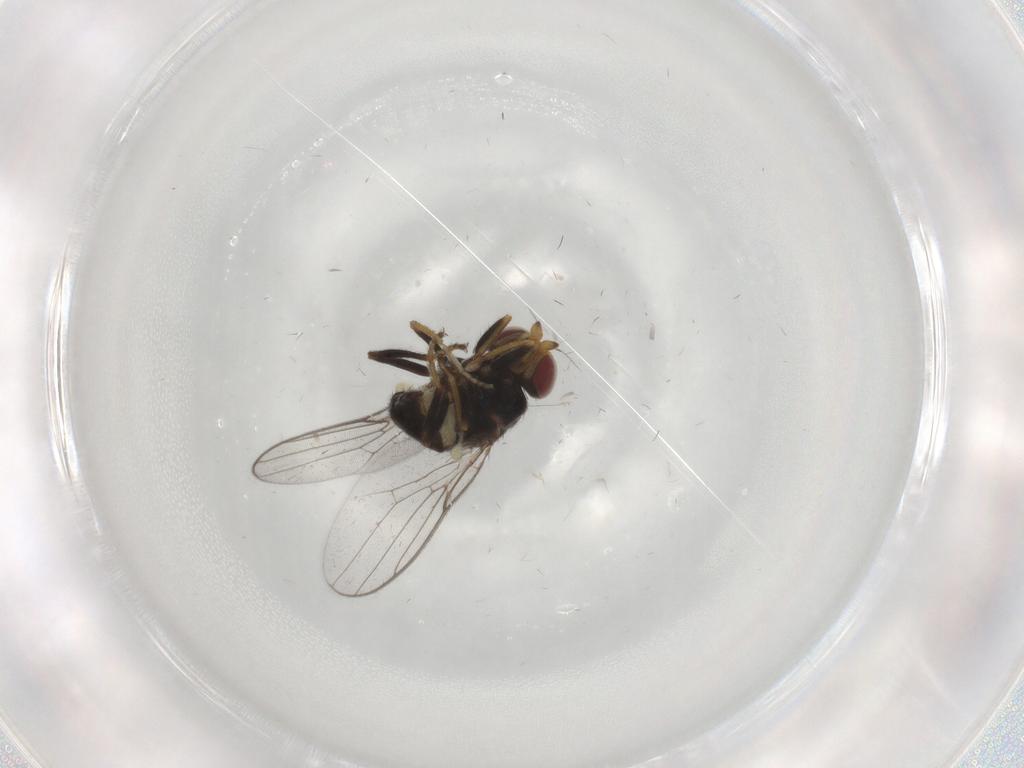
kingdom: Animalia
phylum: Arthropoda
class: Insecta
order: Diptera
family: Chloropidae
